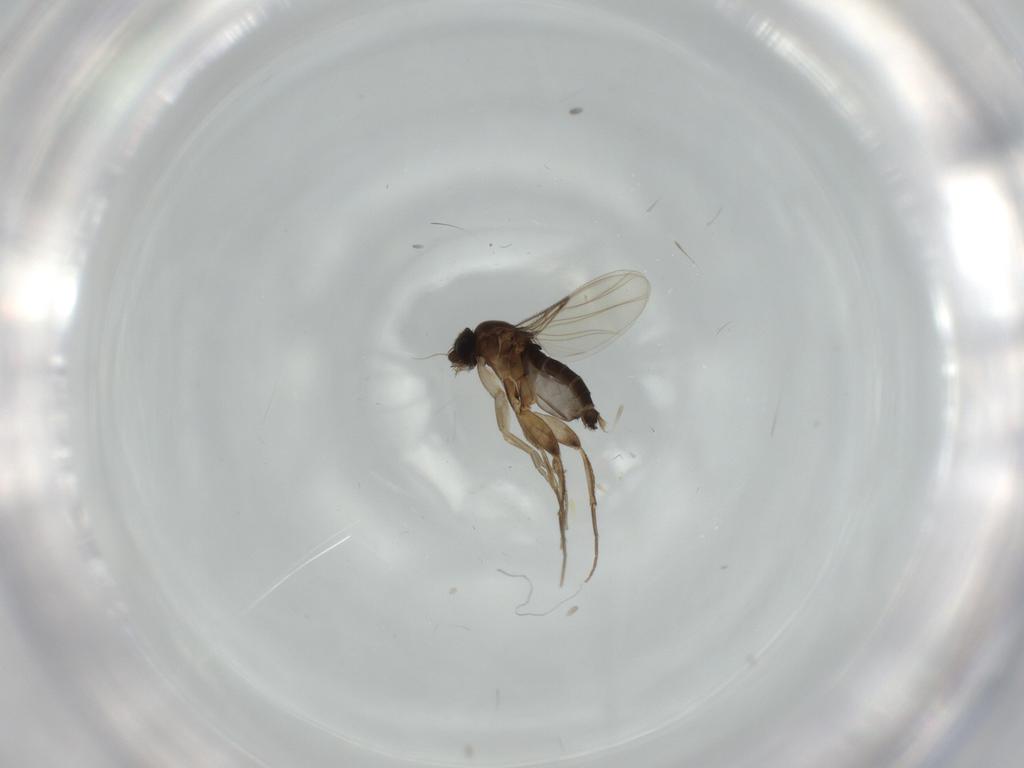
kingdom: Animalia
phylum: Arthropoda
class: Insecta
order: Diptera
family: Phoridae
